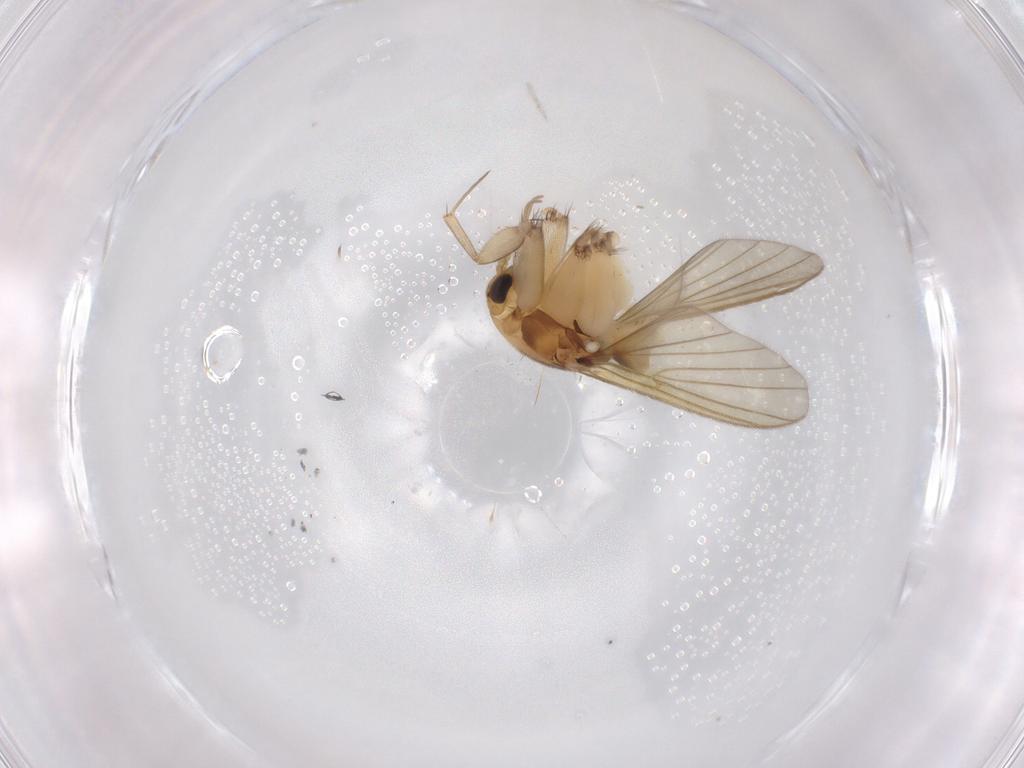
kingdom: Animalia
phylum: Arthropoda
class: Insecta
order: Diptera
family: Mycetophilidae
